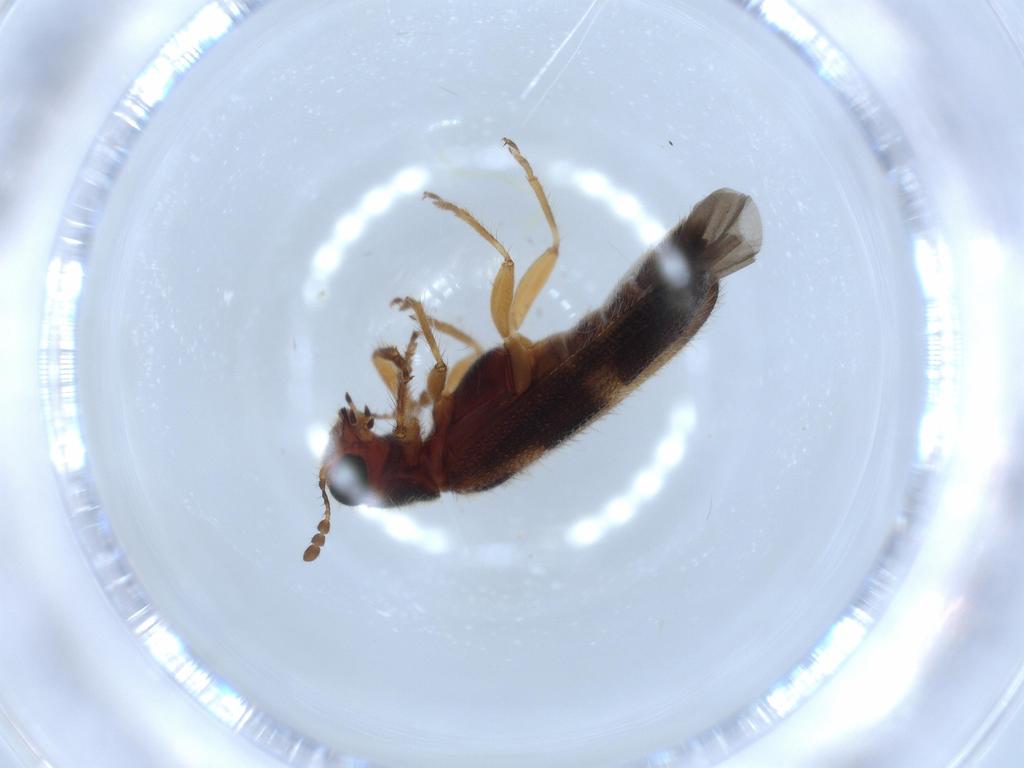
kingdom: Animalia
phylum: Arthropoda
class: Insecta
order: Coleoptera
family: Cleridae
